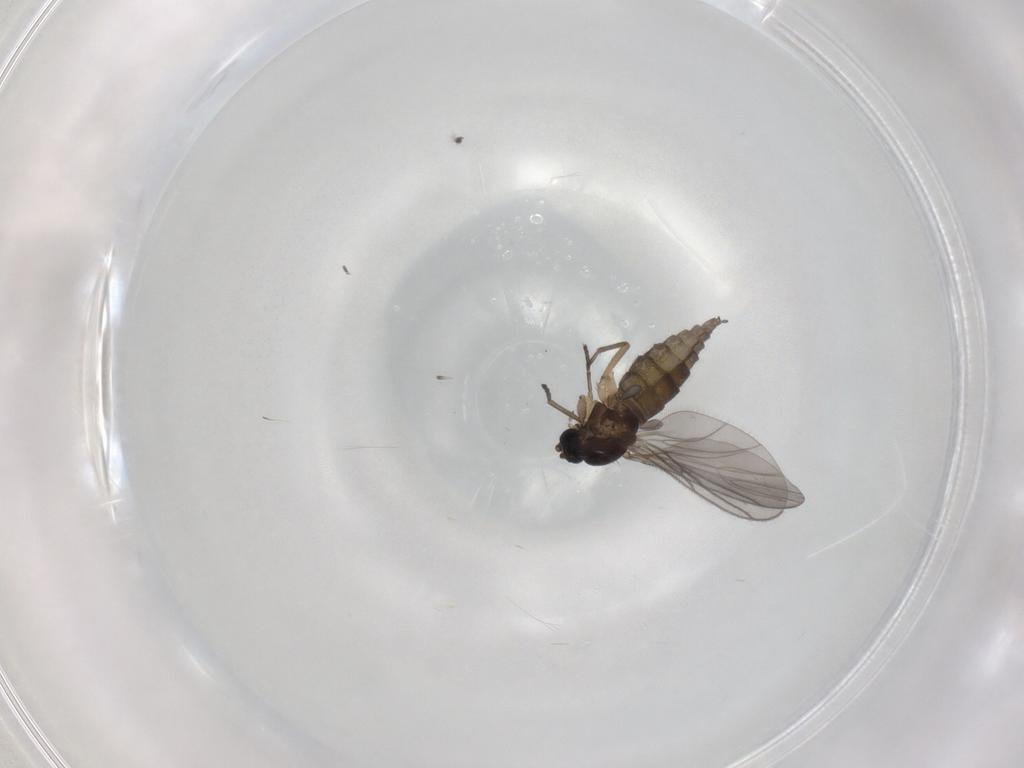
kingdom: Animalia
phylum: Arthropoda
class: Insecta
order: Diptera
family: Sciaridae
